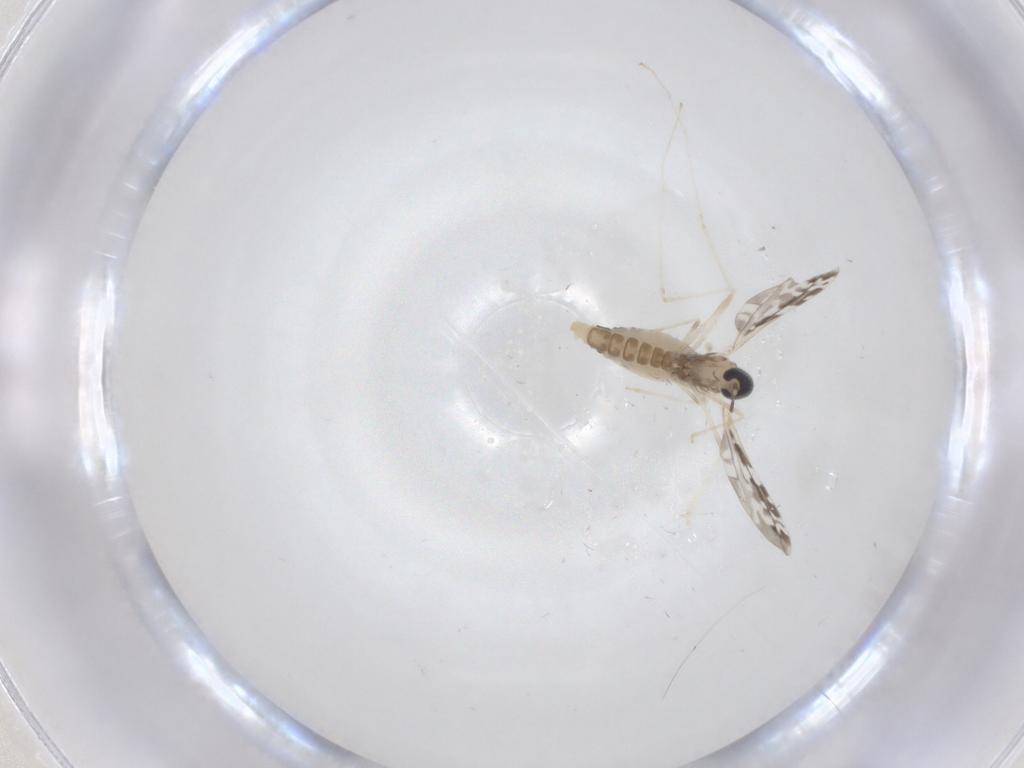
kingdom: Animalia
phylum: Arthropoda
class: Insecta
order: Diptera
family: Cecidomyiidae
